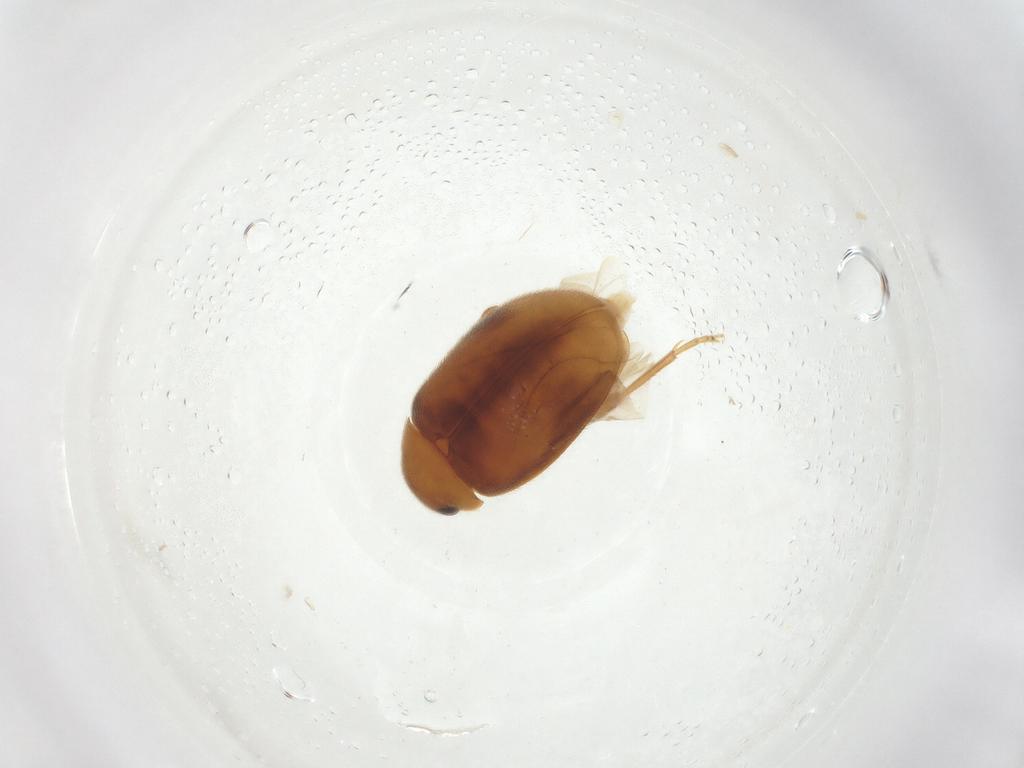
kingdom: Animalia
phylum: Arthropoda
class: Insecta
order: Coleoptera
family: Scirtidae
